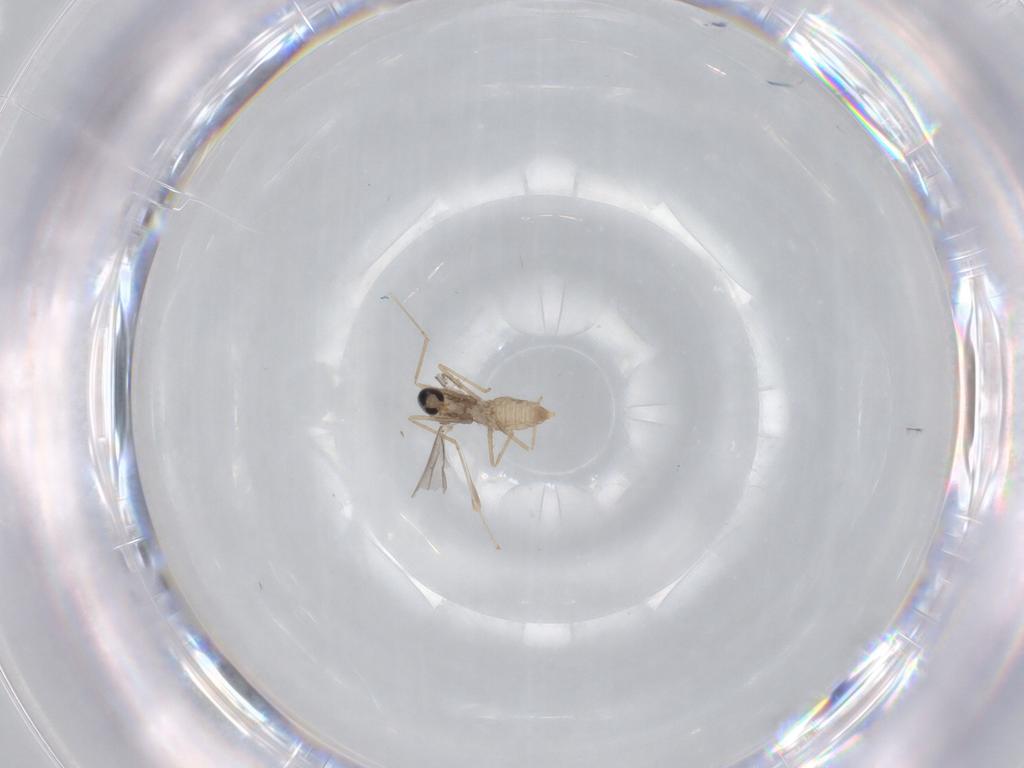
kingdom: Animalia
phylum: Arthropoda
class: Insecta
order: Diptera
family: Cecidomyiidae
